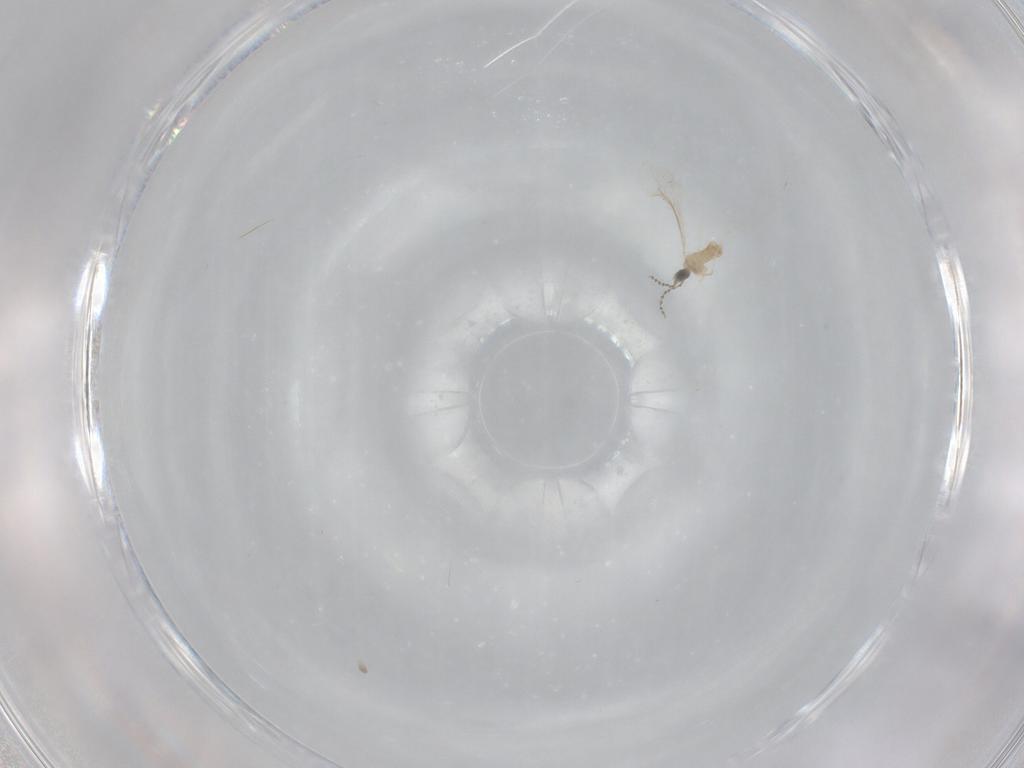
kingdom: Animalia
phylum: Arthropoda
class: Insecta
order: Diptera
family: Cecidomyiidae
